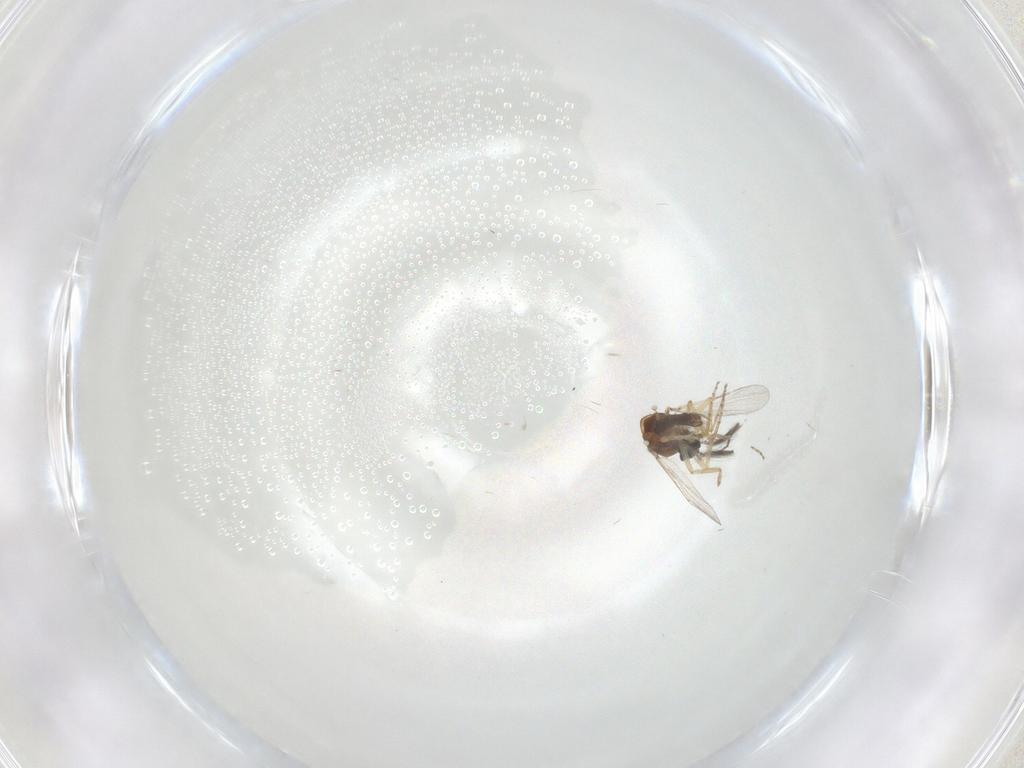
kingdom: Animalia
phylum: Arthropoda
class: Insecta
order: Diptera
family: Ceratopogonidae
